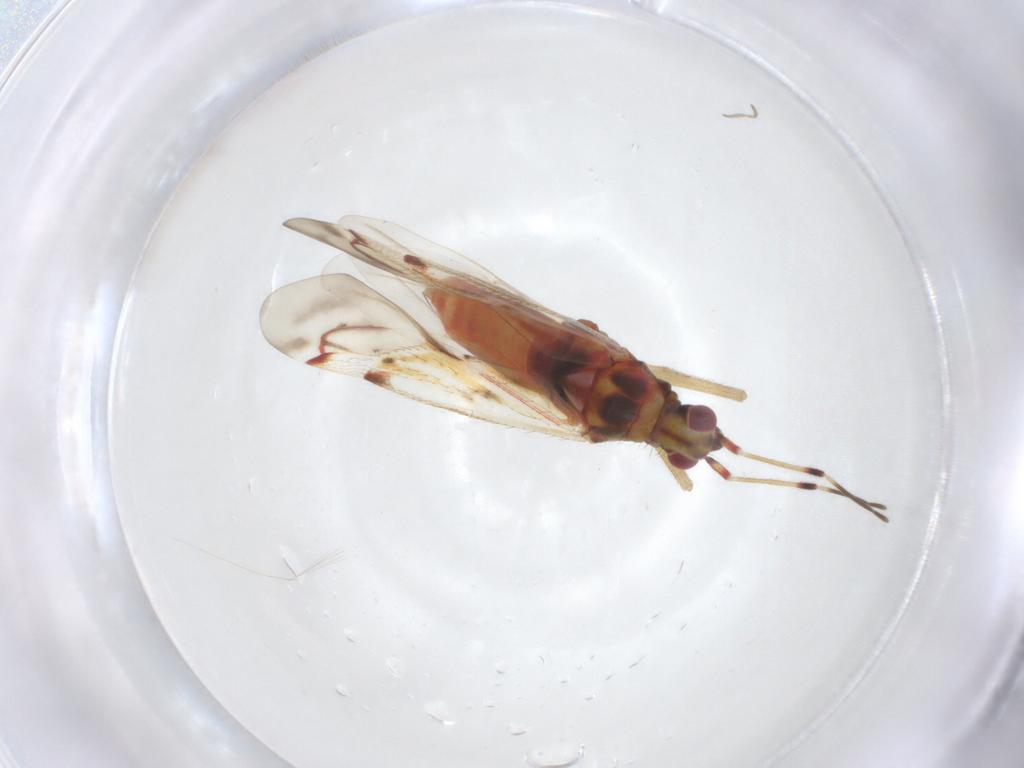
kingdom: Animalia
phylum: Arthropoda
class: Insecta
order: Hemiptera
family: Miridae
